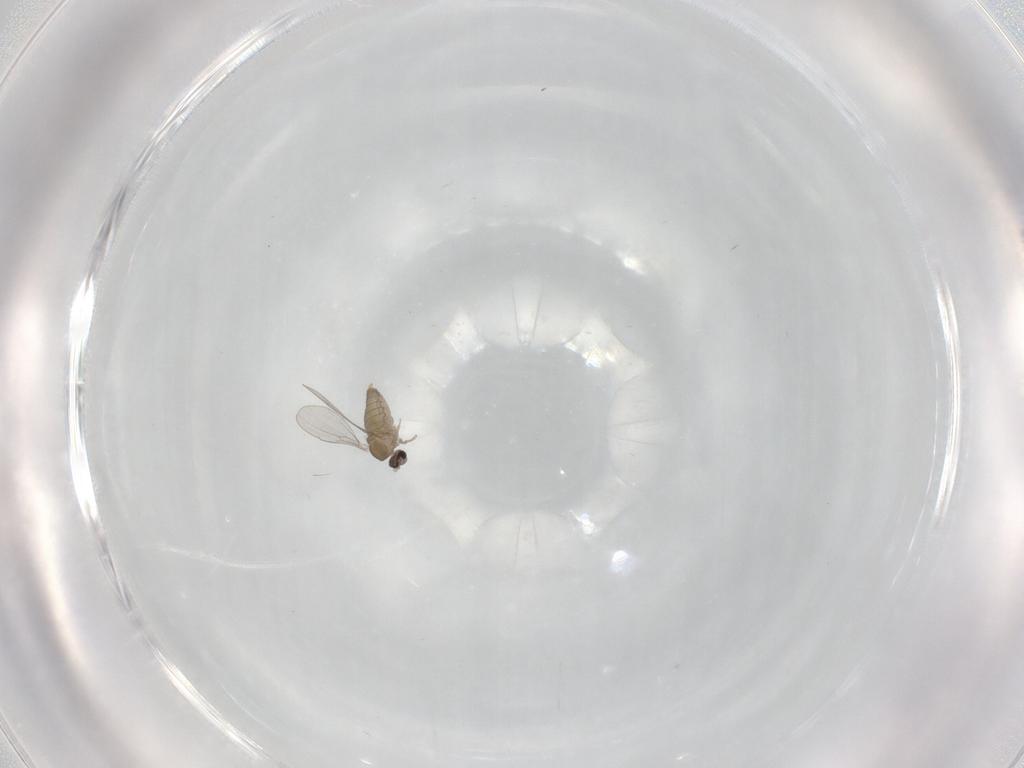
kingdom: Animalia
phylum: Arthropoda
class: Insecta
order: Diptera
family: Cecidomyiidae
